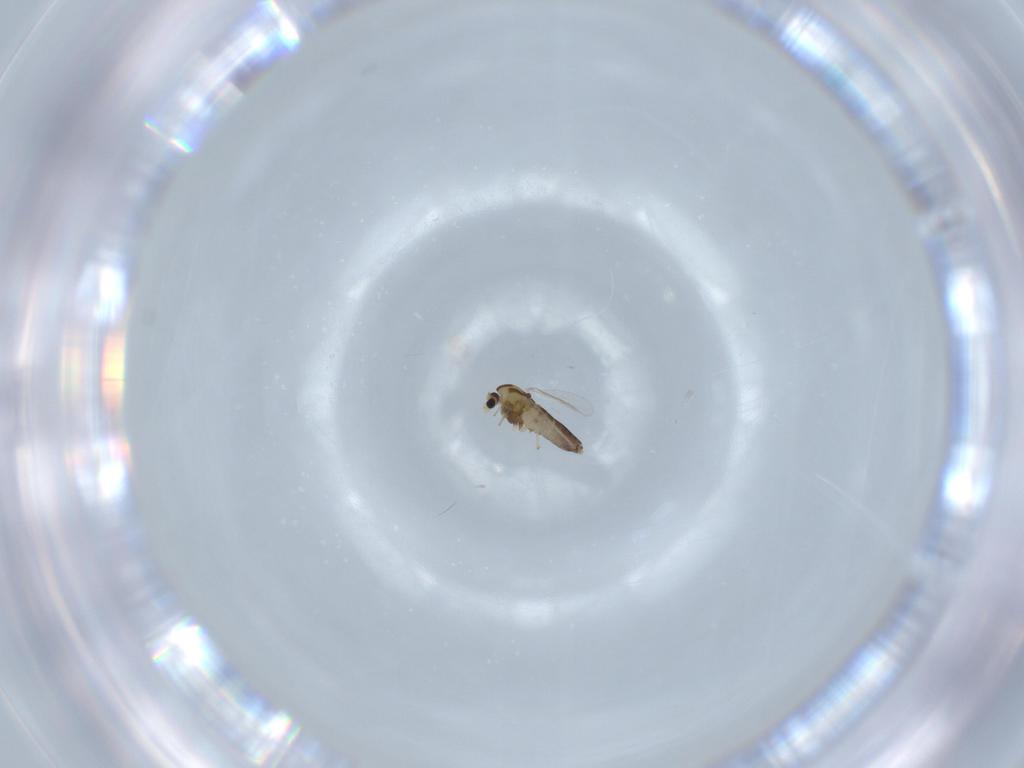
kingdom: Animalia
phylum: Arthropoda
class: Insecta
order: Diptera
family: Chironomidae
